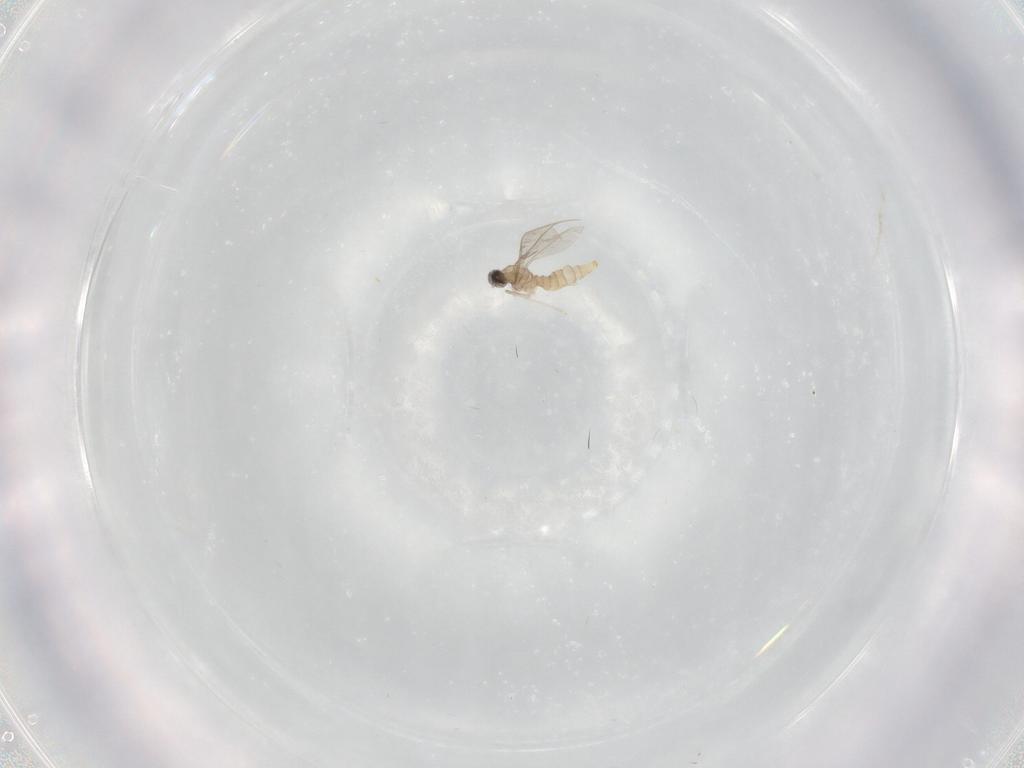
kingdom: Animalia
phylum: Arthropoda
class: Insecta
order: Diptera
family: Cecidomyiidae
